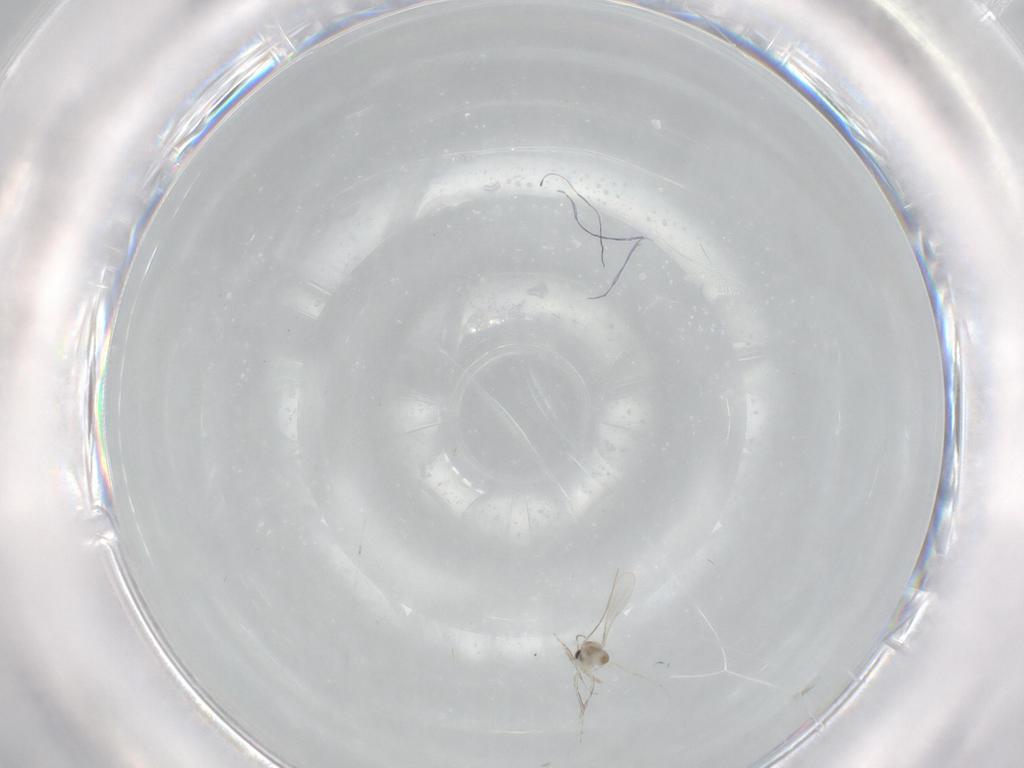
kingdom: Animalia
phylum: Arthropoda
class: Insecta
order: Diptera
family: Cecidomyiidae
